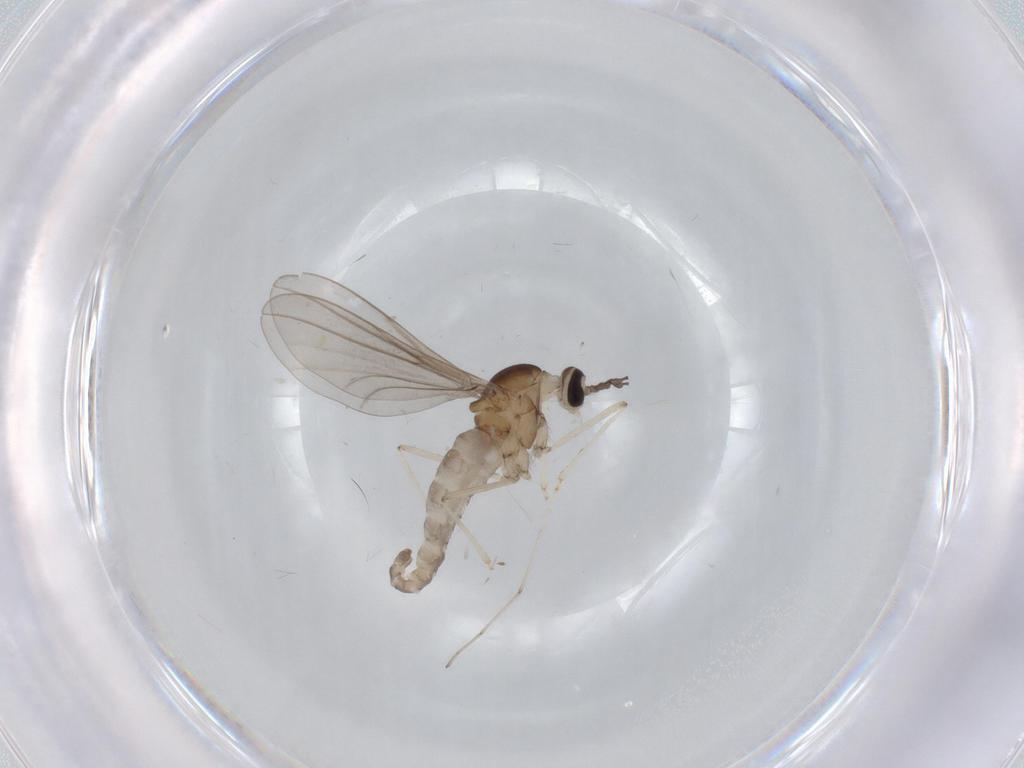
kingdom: Animalia
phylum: Arthropoda
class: Insecta
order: Diptera
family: Cecidomyiidae
